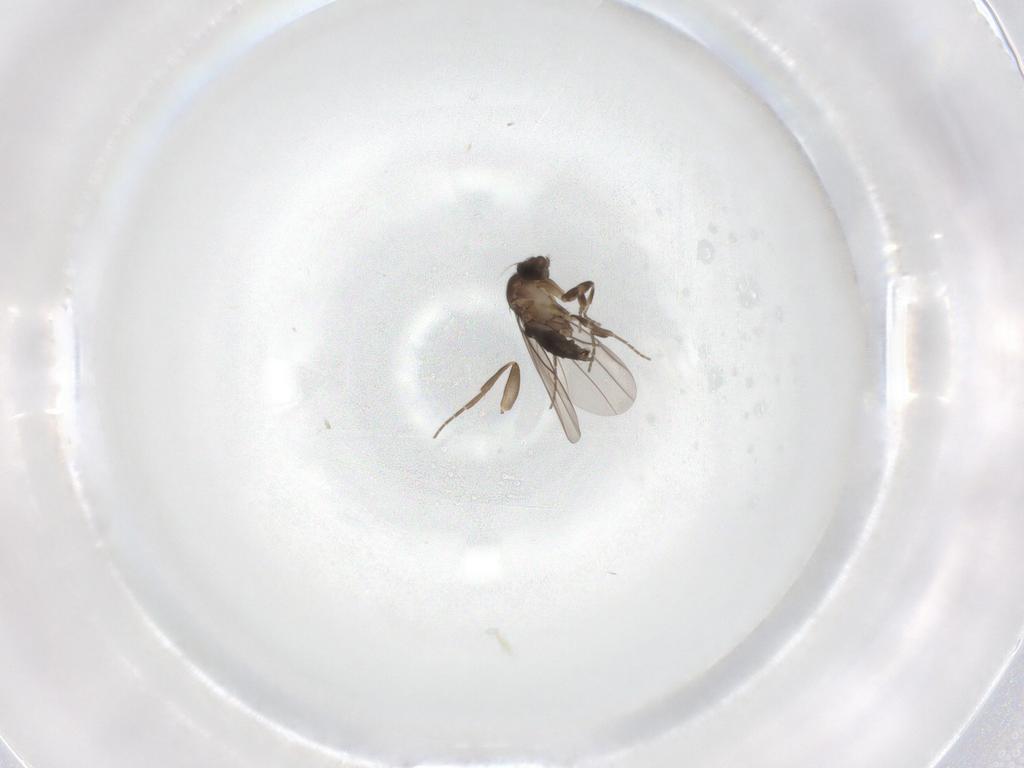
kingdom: Animalia
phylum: Arthropoda
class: Insecta
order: Diptera
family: Phoridae
